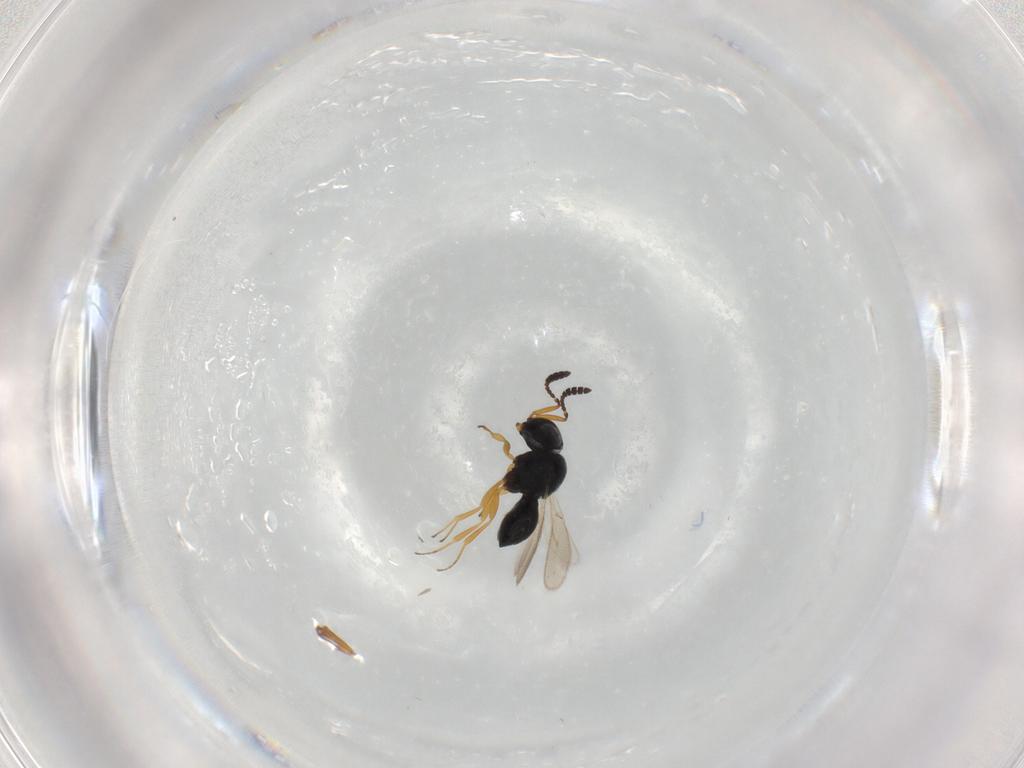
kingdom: Animalia
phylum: Arthropoda
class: Insecta
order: Hymenoptera
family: Scelionidae
